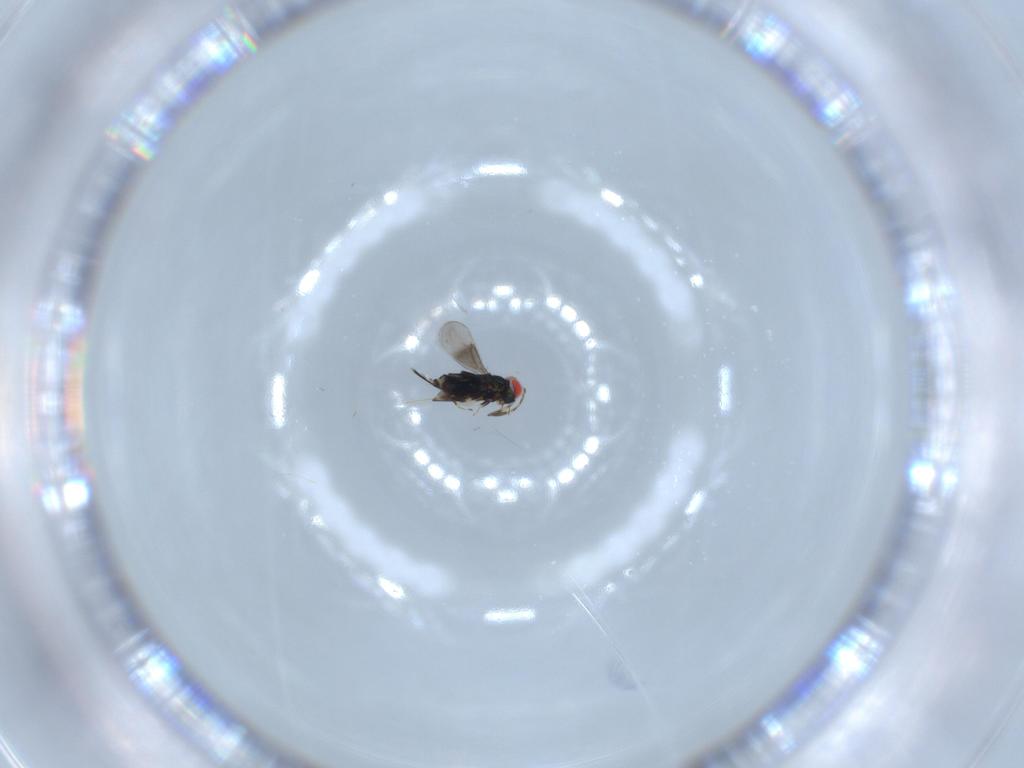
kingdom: Animalia
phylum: Arthropoda
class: Insecta
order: Hymenoptera
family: Azotidae
